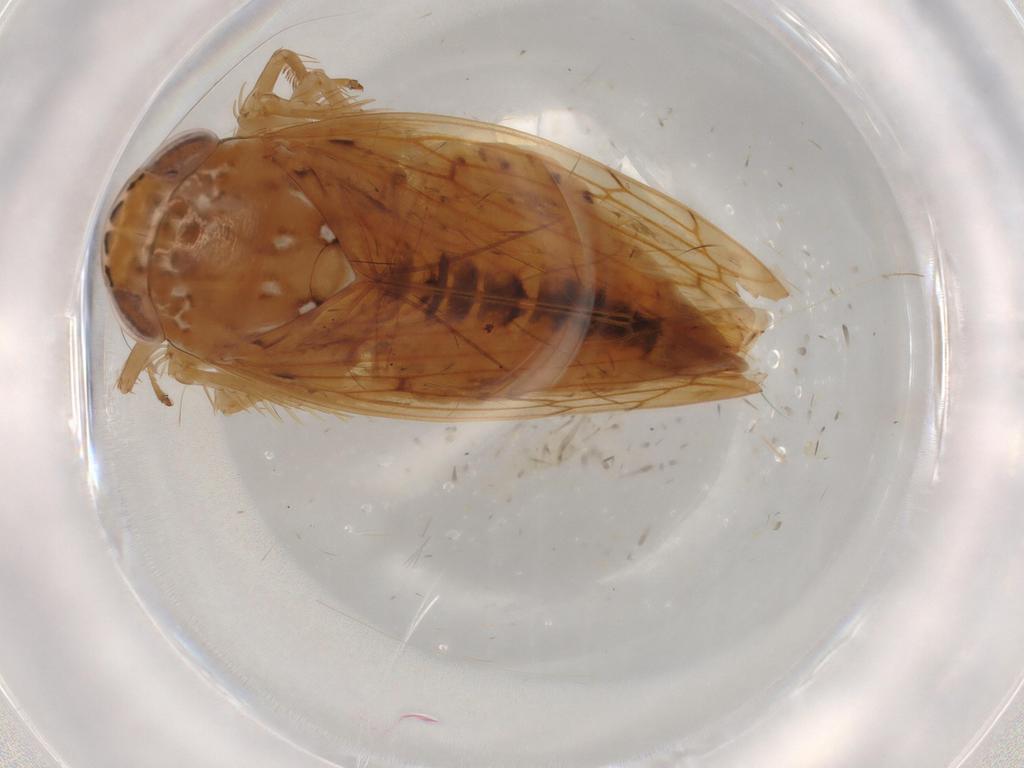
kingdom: Animalia
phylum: Arthropoda
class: Insecta
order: Hemiptera
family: Cicadellidae
